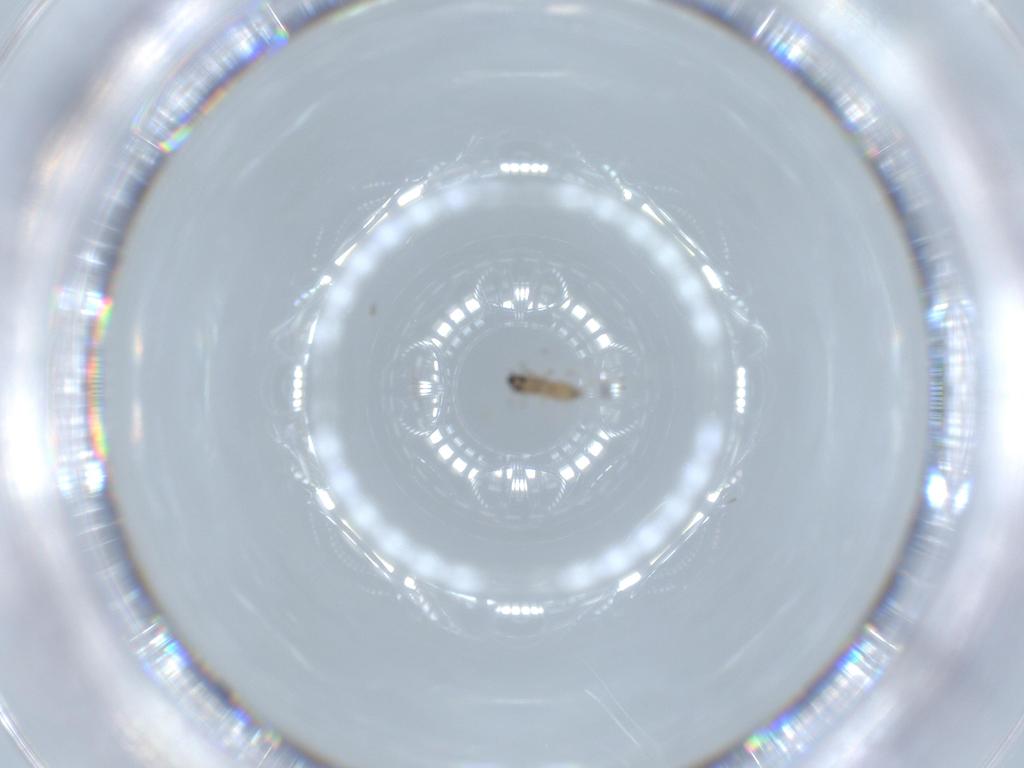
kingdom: Animalia
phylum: Arthropoda
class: Insecta
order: Diptera
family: Cecidomyiidae
